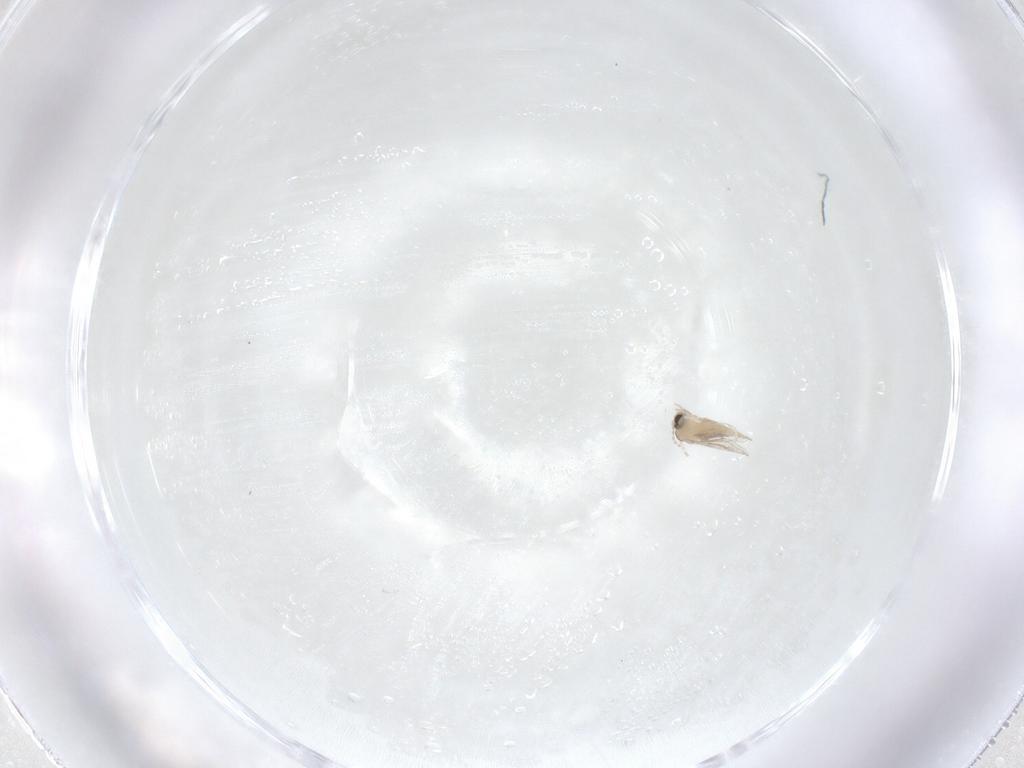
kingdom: Animalia
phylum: Arthropoda
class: Insecta
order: Diptera
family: Cecidomyiidae
